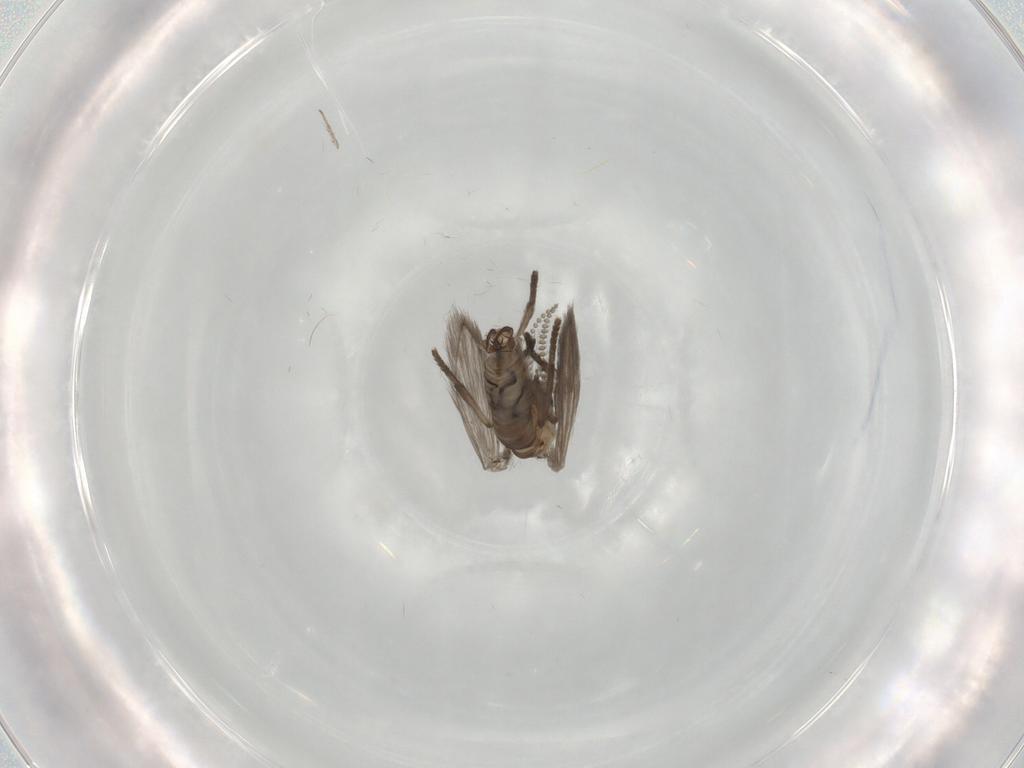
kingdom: Animalia
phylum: Arthropoda
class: Insecta
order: Diptera
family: Psychodidae
